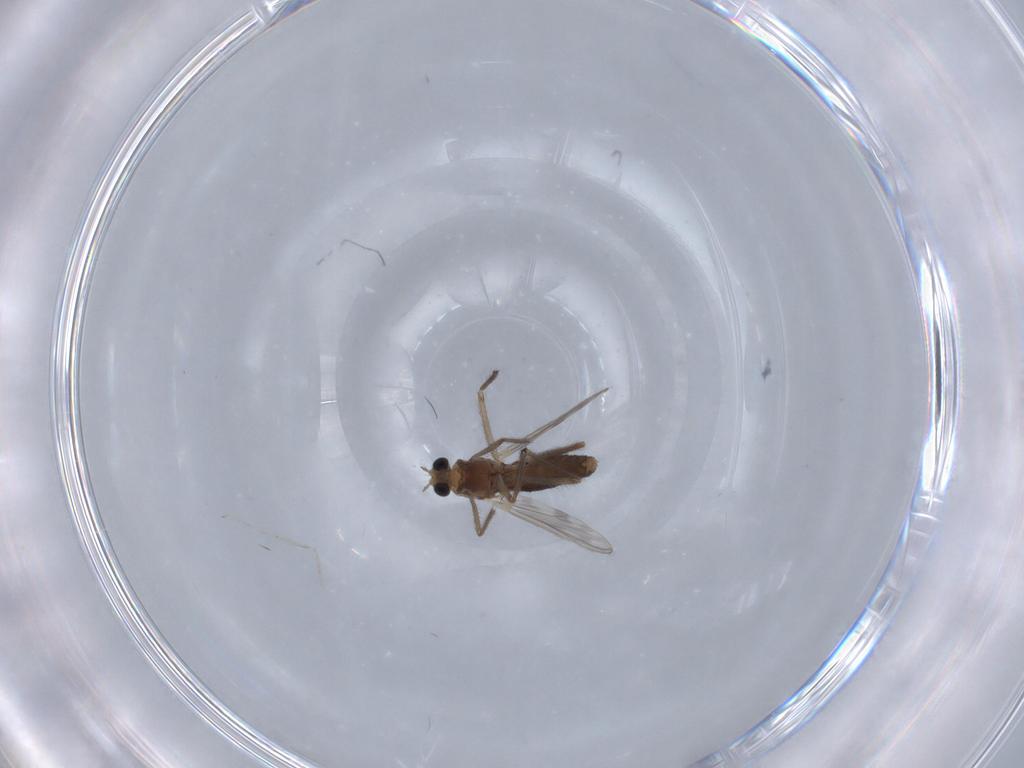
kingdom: Animalia
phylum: Arthropoda
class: Insecta
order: Diptera
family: Chironomidae
